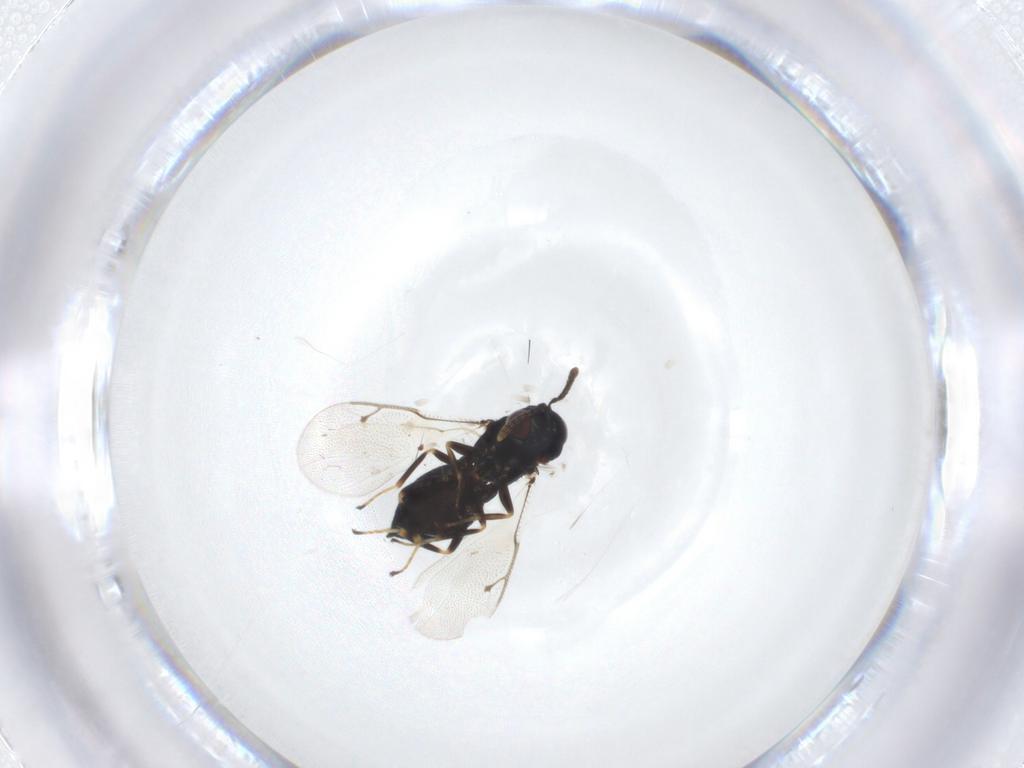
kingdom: Animalia
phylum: Arthropoda
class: Insecta
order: Hymenoptera
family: Pteromalidae
